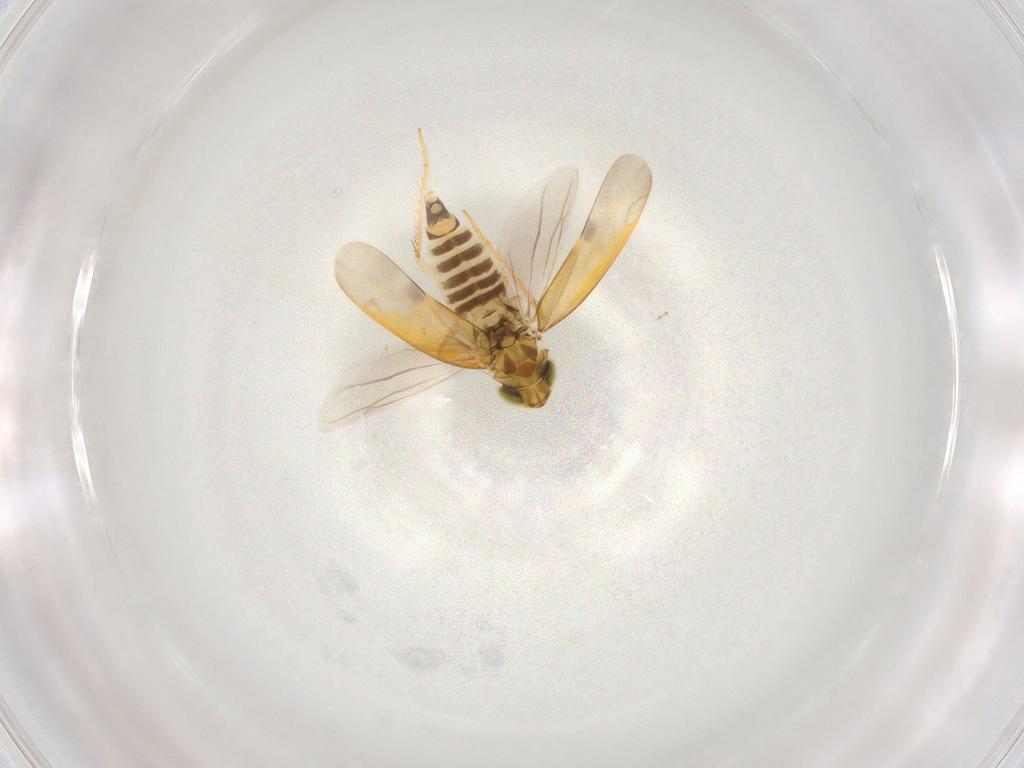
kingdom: Animalia
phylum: Arthropoda
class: Insecta
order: Hemiptera
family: Cicadellidae
